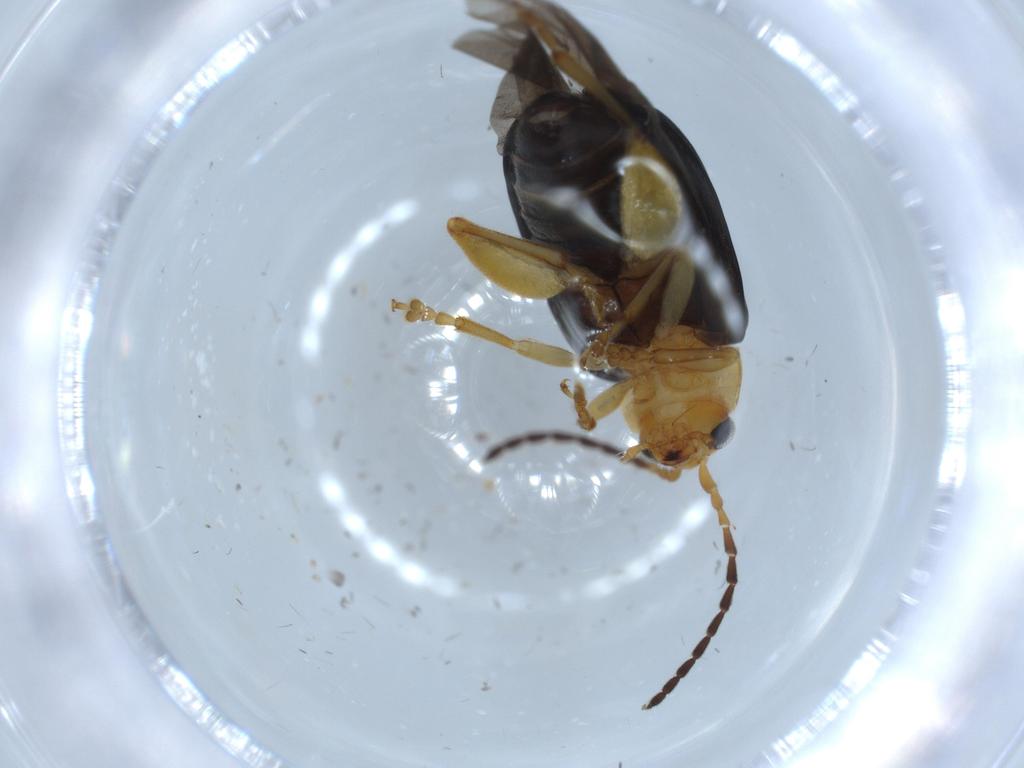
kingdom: Animalia
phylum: Arthropoda
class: Insecta
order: Coleoptera
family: Chrysomelidae
